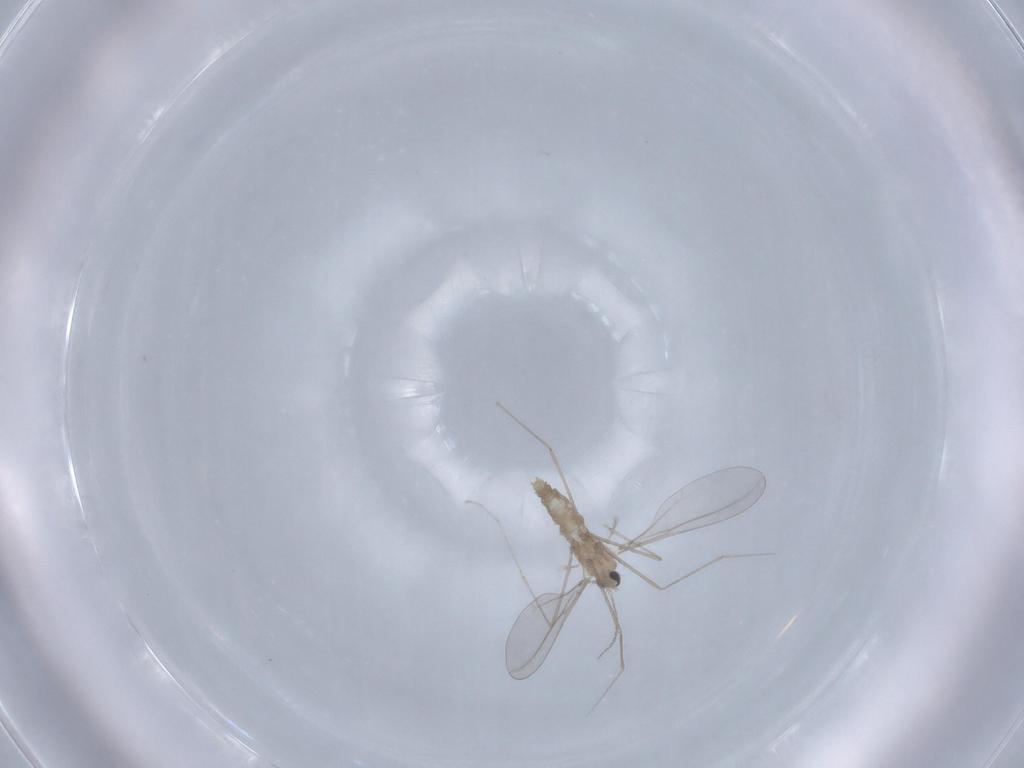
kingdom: Animalia
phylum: Arthropoda
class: Insecta
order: Diptera
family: Cecidomyiidae
